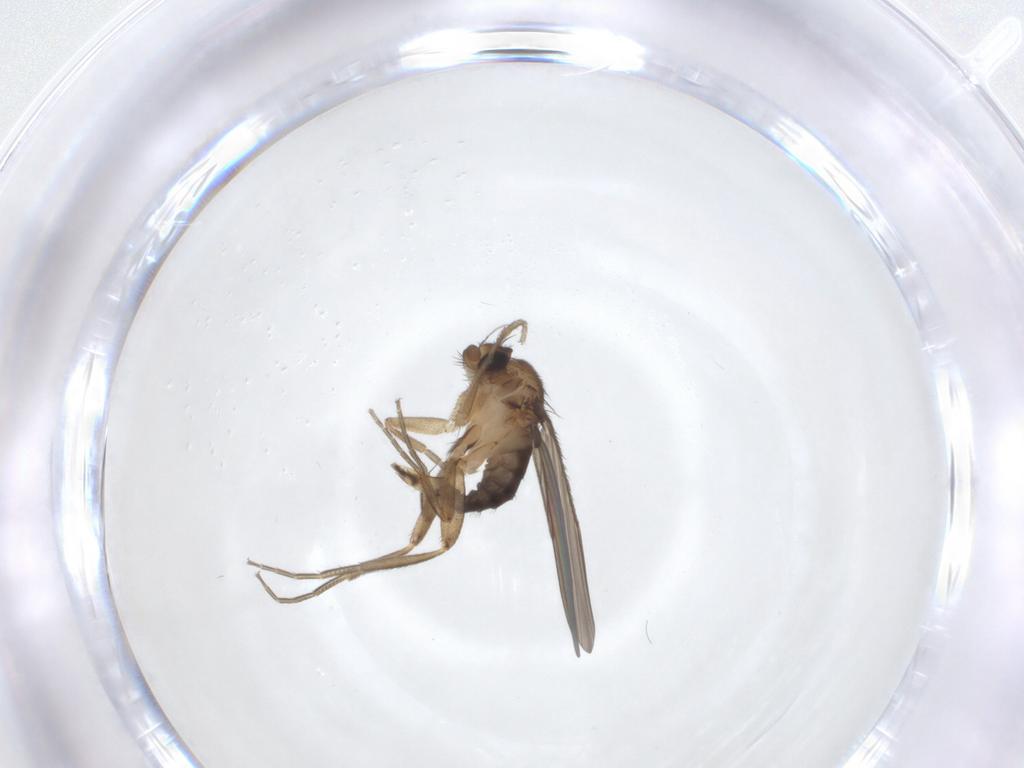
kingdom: Animalia
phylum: Arthropoda
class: Insecta
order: Diptera
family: Phoridae
